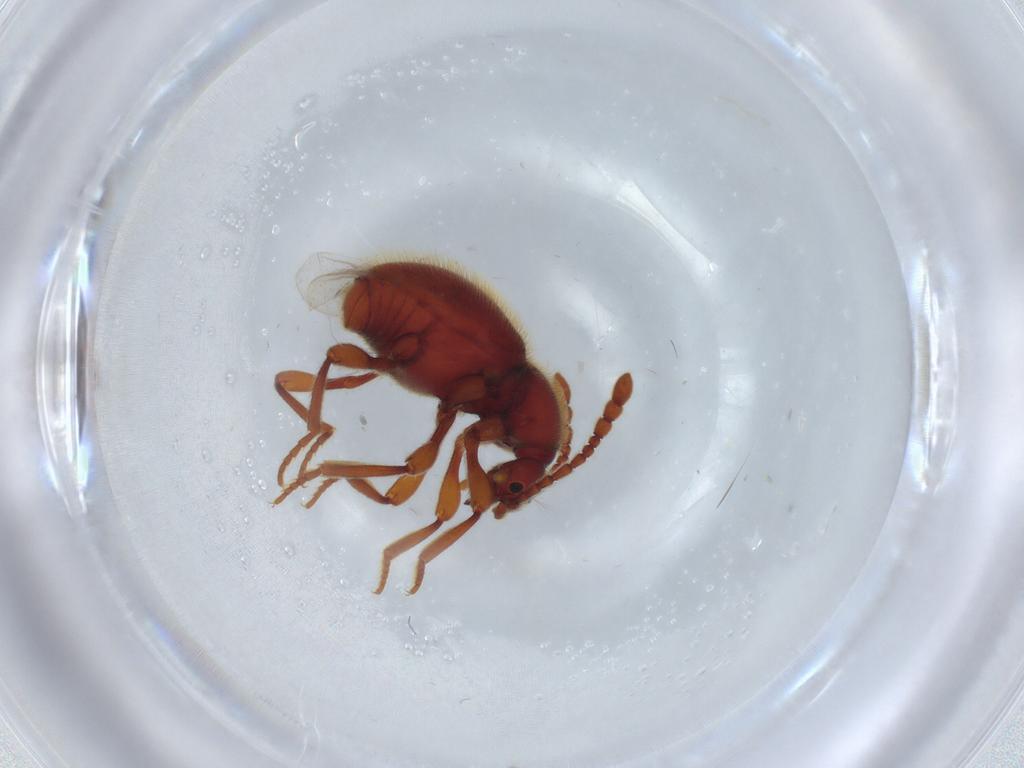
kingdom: Animalia
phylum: Arthropoda
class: Insecta
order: Coleoptera
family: Staphylinidae
